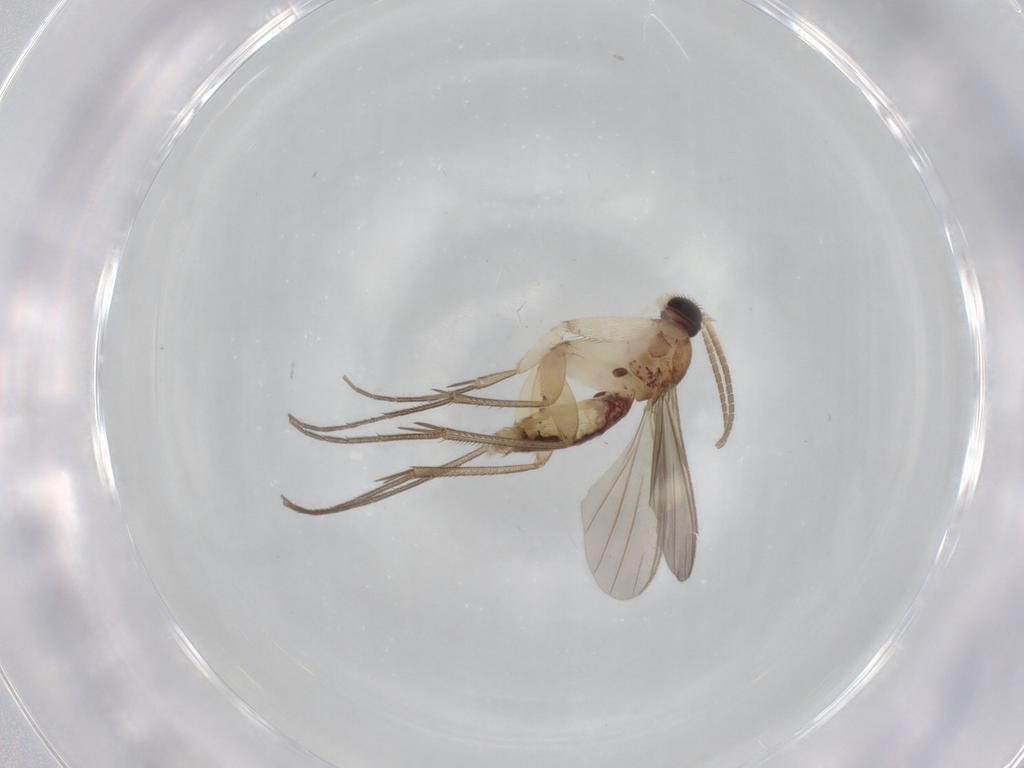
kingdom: Animalia
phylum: Arthropoda
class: Insecta
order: Diptera
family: Mycetophilidae
